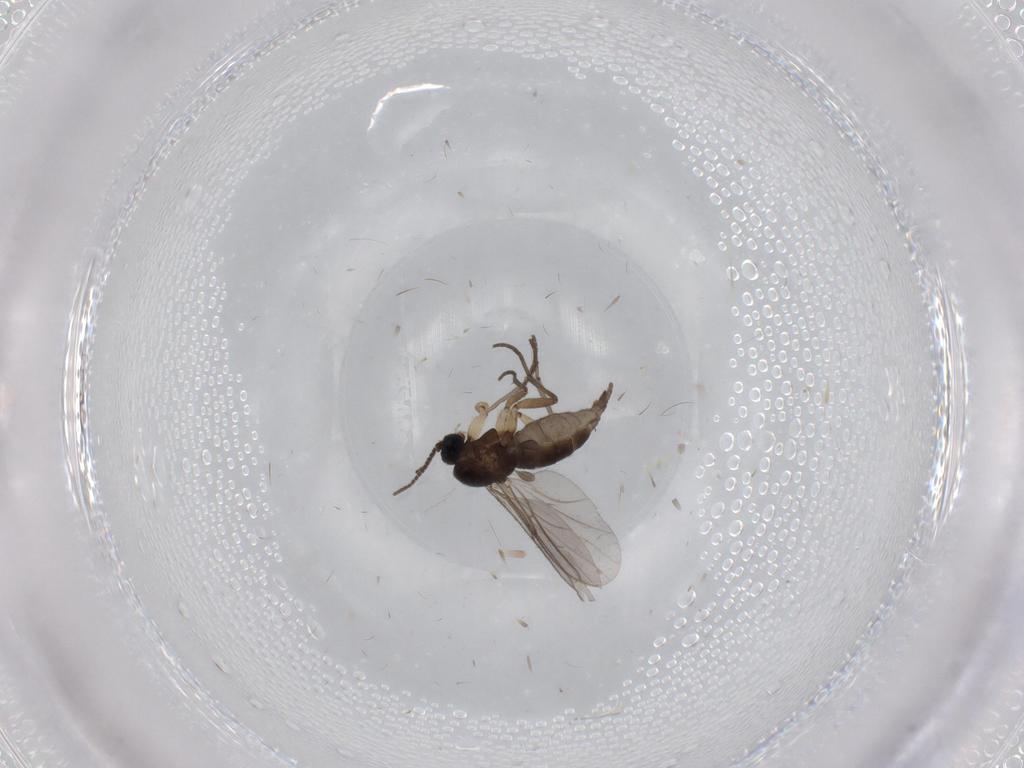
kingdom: Animalia
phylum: Arthropoda
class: Insecta
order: Diptera
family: Sciaridae
